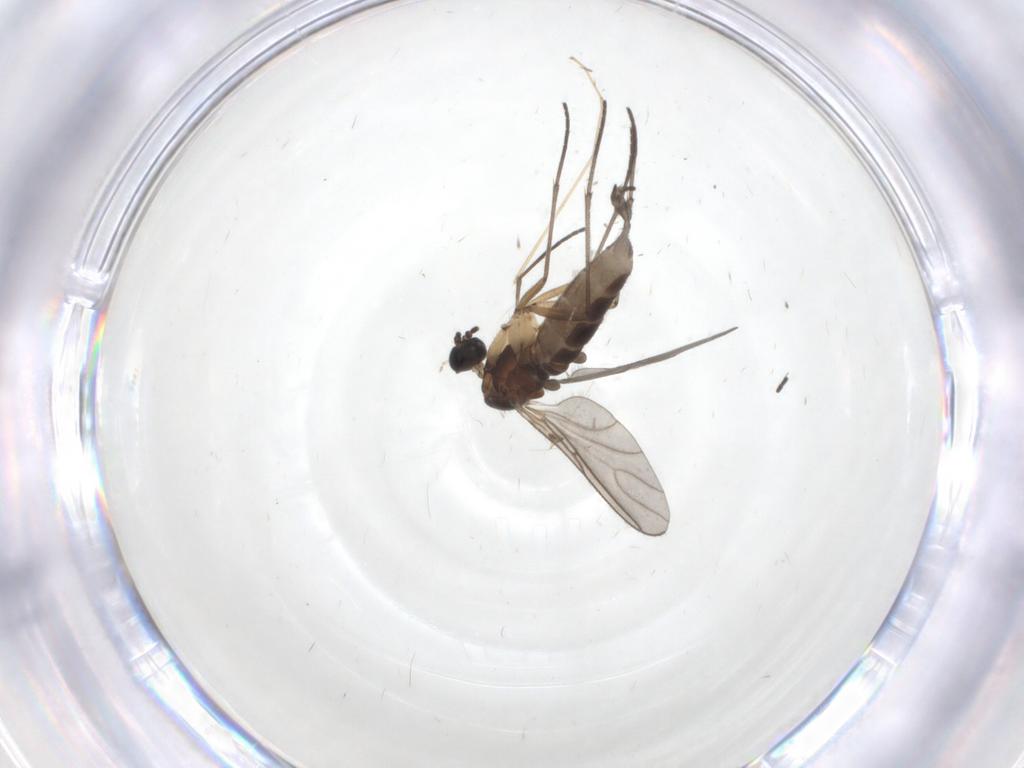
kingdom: Animalia
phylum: Arthropoda
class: Insecta
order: Diptera
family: Sciaridae
